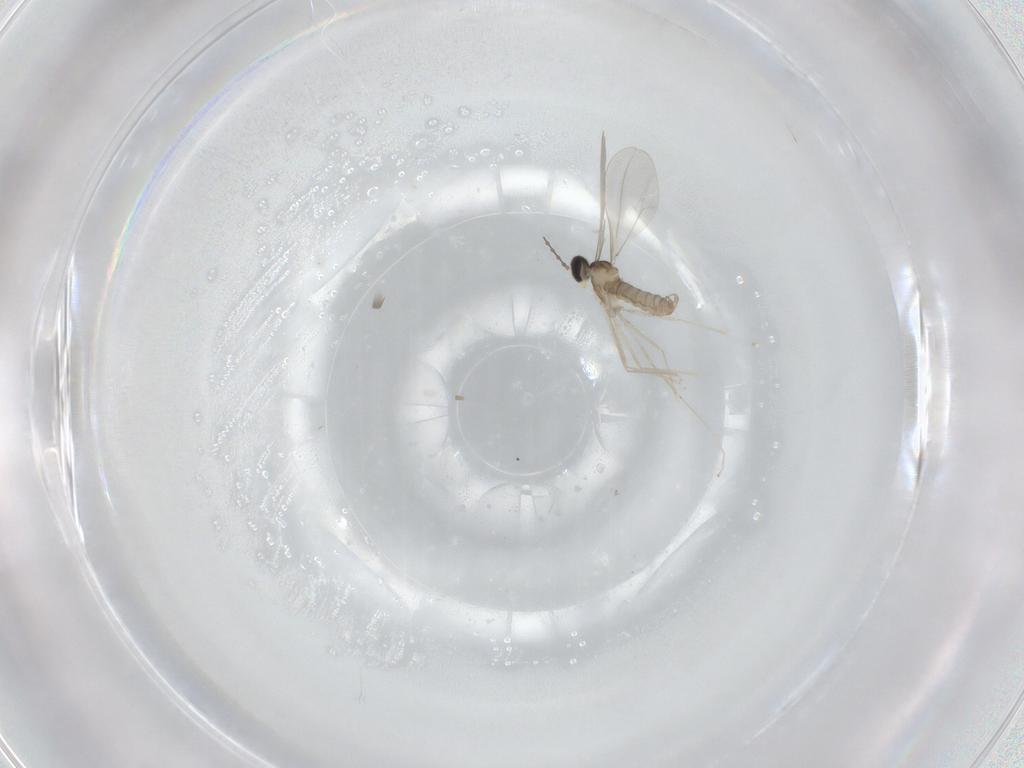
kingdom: Animalia
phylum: Arthropoda
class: Insecta
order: Diptera
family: Cecidomyiidae
